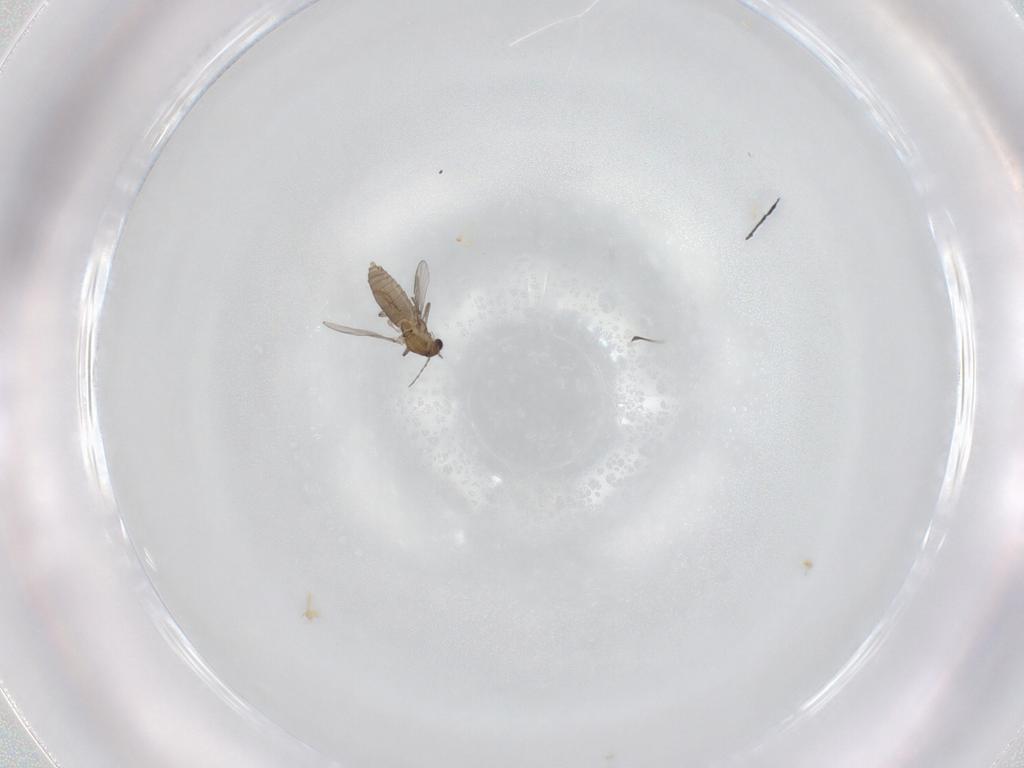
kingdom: Animalia
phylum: Arthropoda
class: Insecta
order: Diptera
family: Chironomidae
